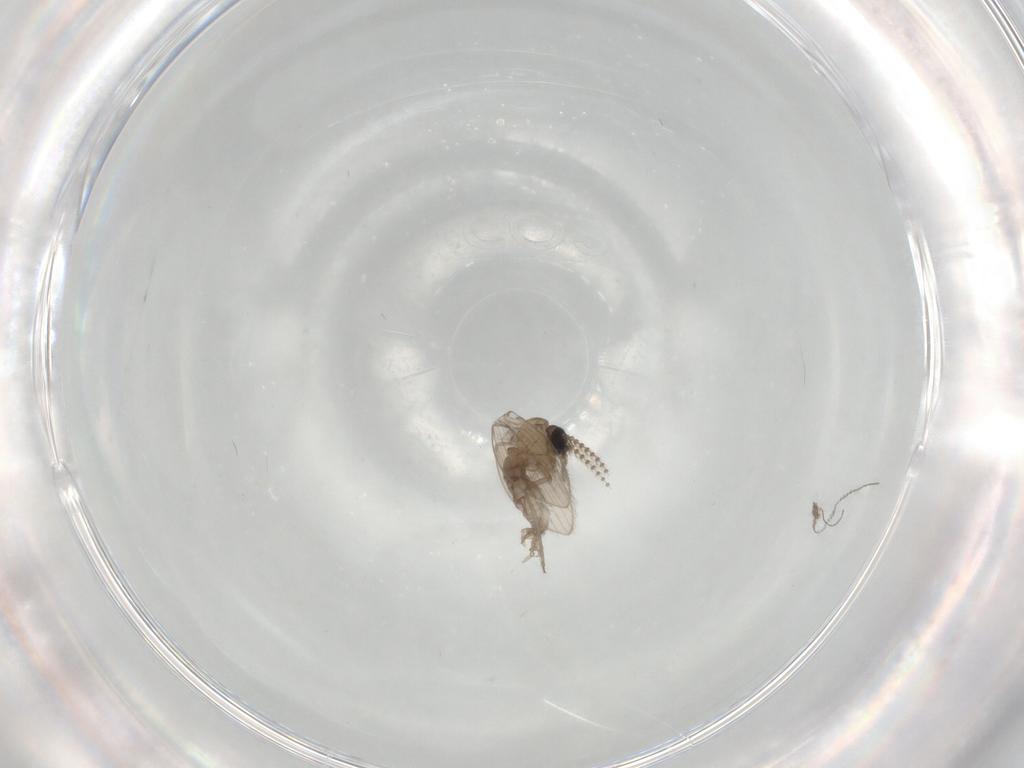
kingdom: Animalia
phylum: Arthropoda
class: Insecta
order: Diptera
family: Psychodidae
